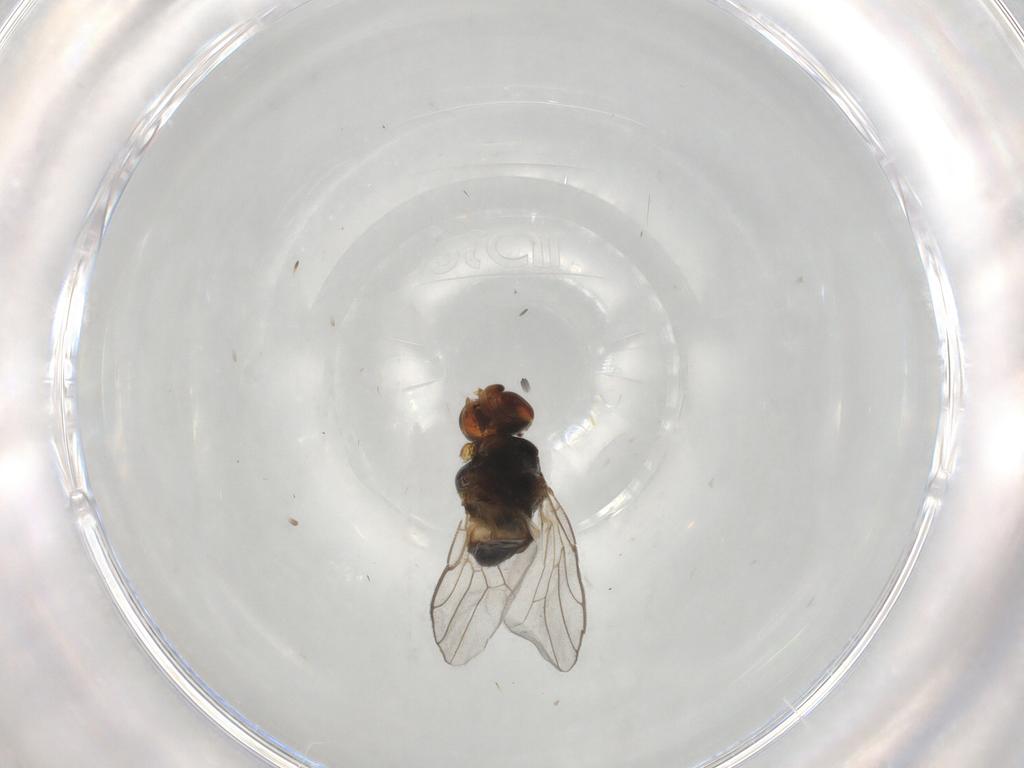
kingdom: Animalia
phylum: Arthropoda
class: Insecta
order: Diptera
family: Chloropidae
